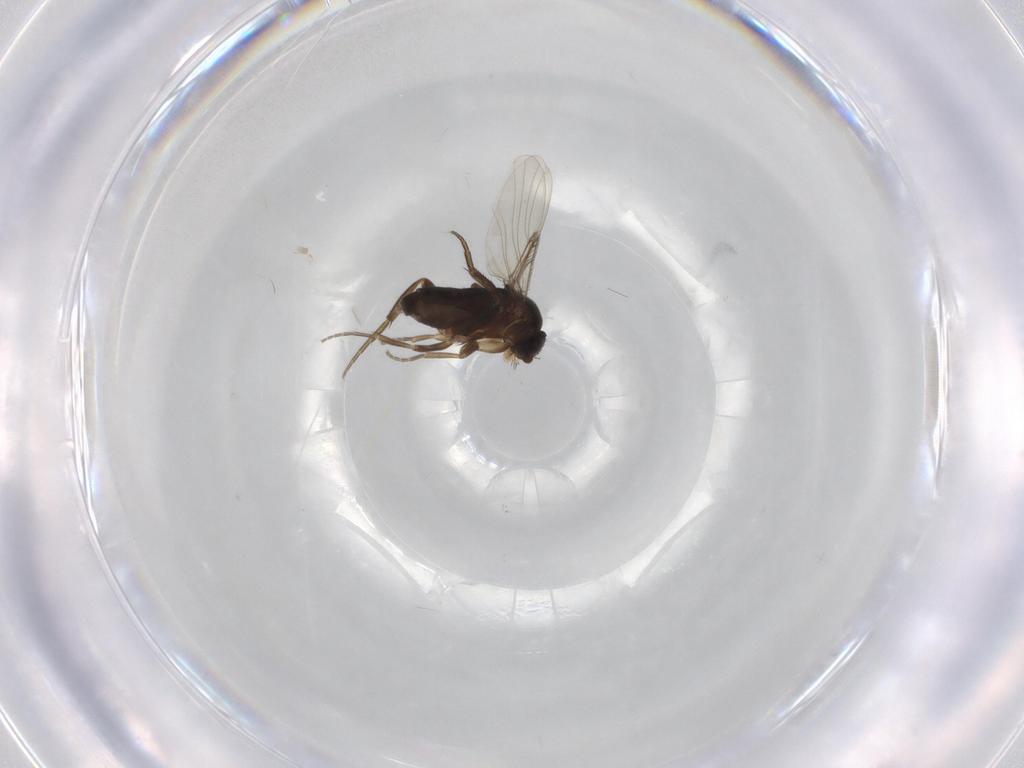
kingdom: Animalia
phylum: Arthropoda
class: Insecta
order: Diptera
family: Phoridae
